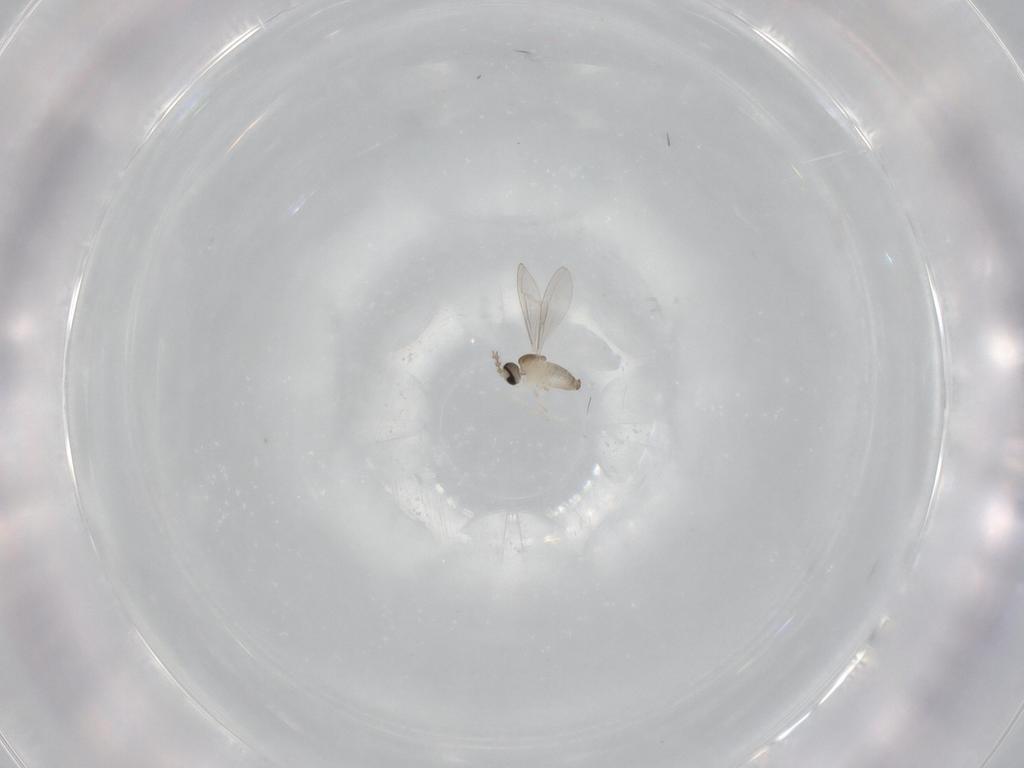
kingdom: Animalia
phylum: Arthropoda
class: Insecta
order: Diptera
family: Cecidomyiidae
